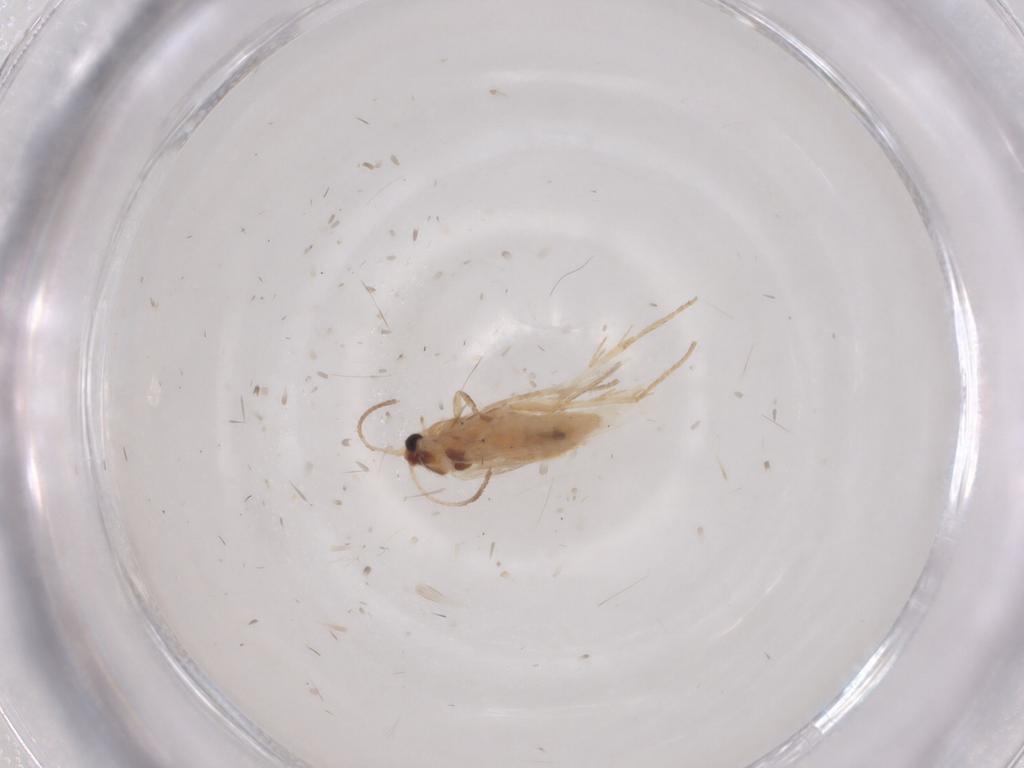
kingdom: Animalia
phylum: Arthropoda
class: Insecta
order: Lepidoptera
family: Nepticulidae
